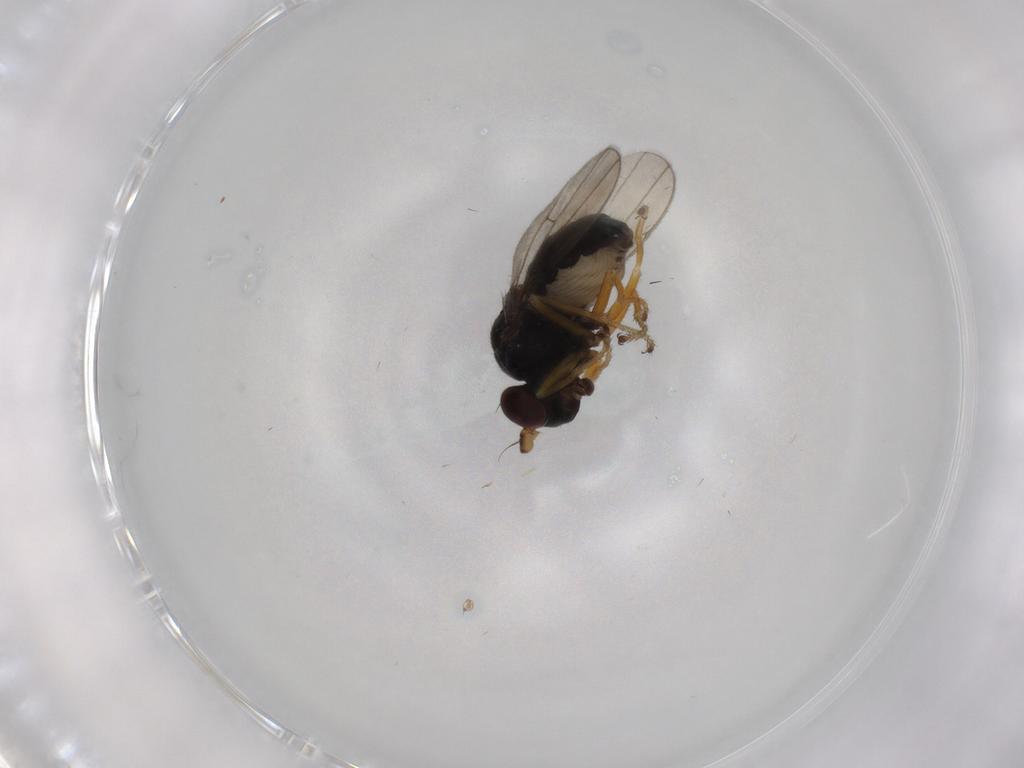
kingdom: Animalia
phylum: Arthropoda
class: Insecta
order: Diptera
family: Ephydridae
